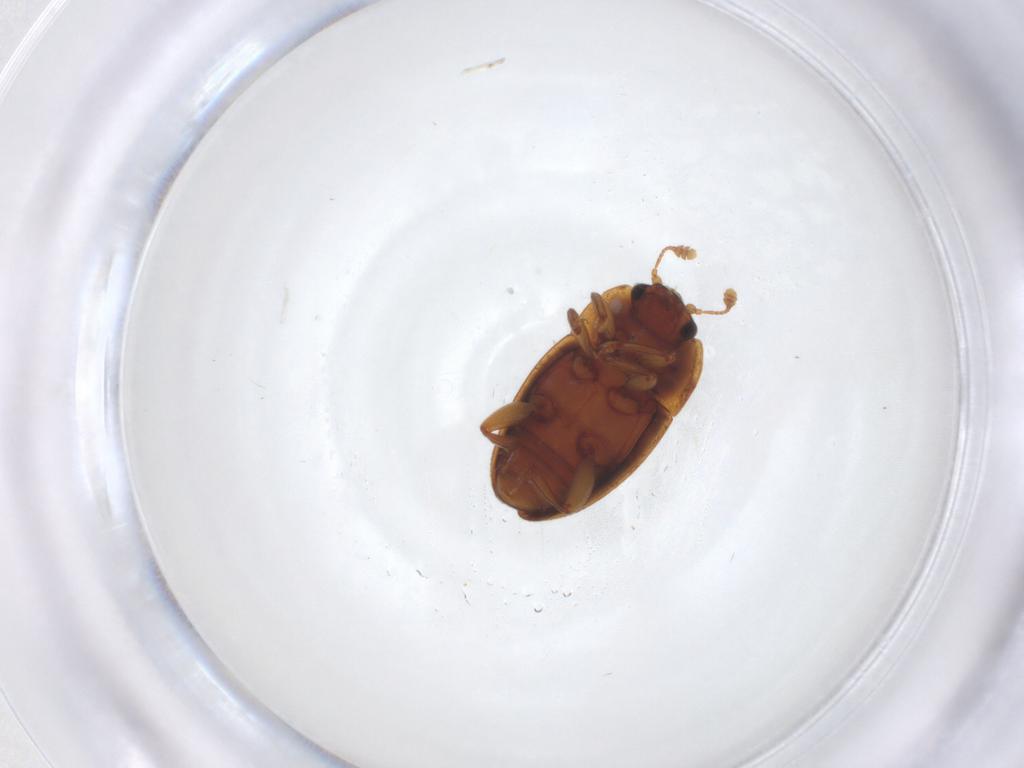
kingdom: Animalia
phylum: Arthropoda
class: Insecta
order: Coleoptera
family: Nitidulidae
